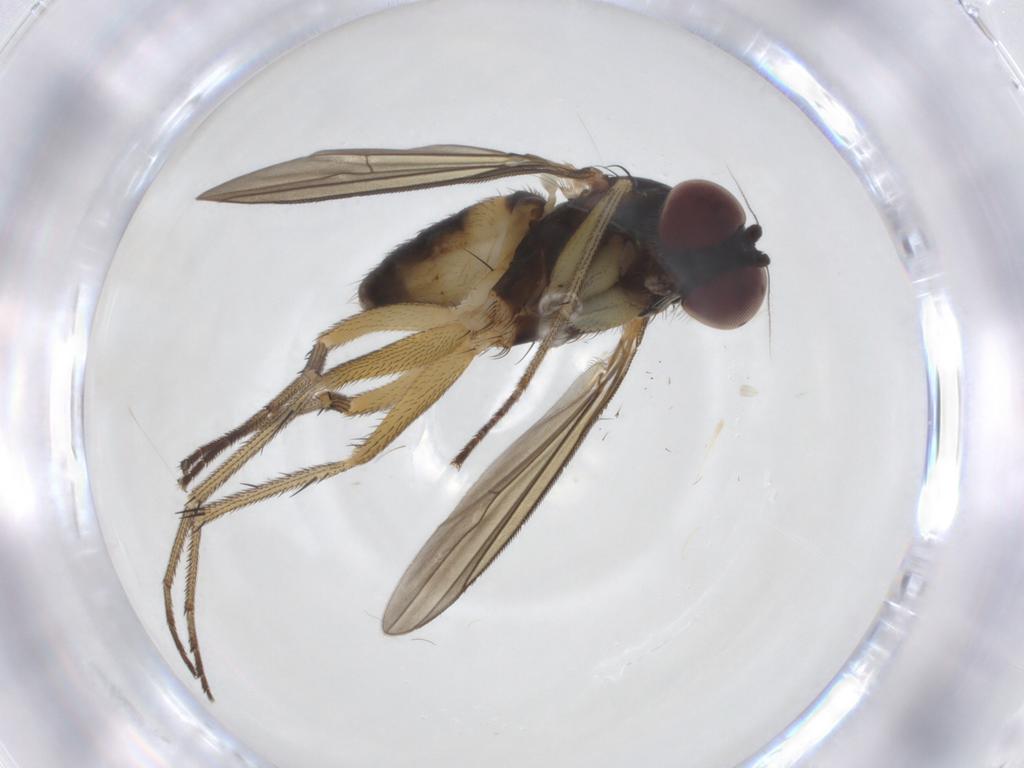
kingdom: Animalia
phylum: Arthropoda
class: Insecta
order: Diptera
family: Dolichopodidae
